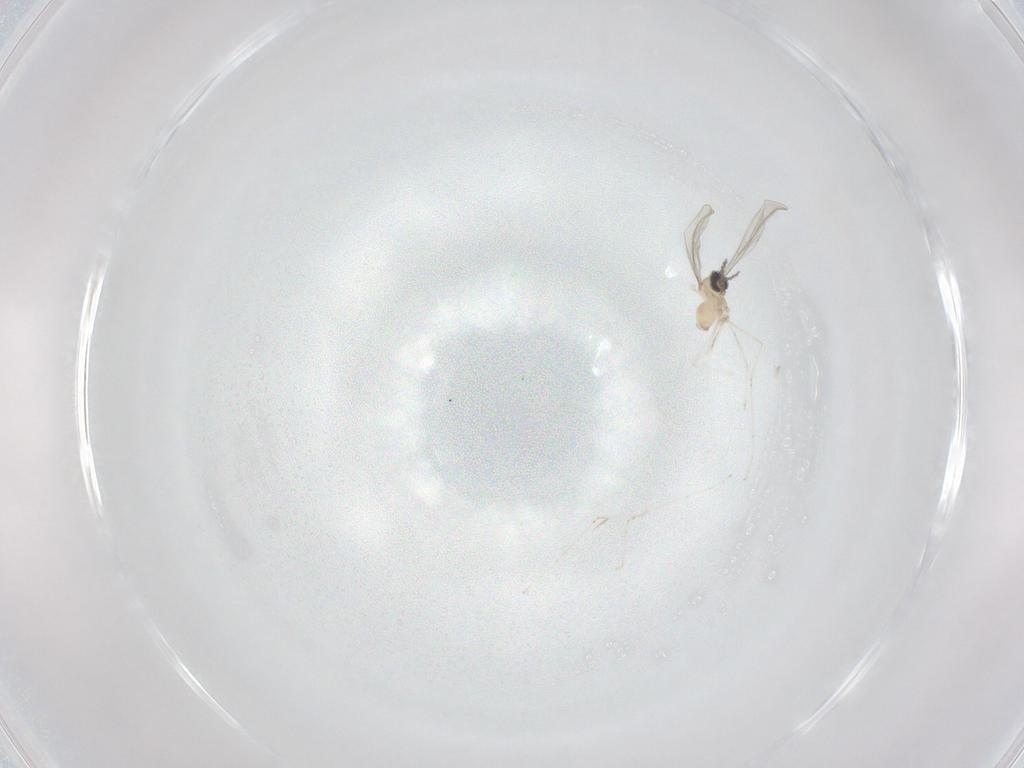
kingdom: Animalia
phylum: Arthropoda
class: Insecta
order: Diptera
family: Cecidomyiidae
